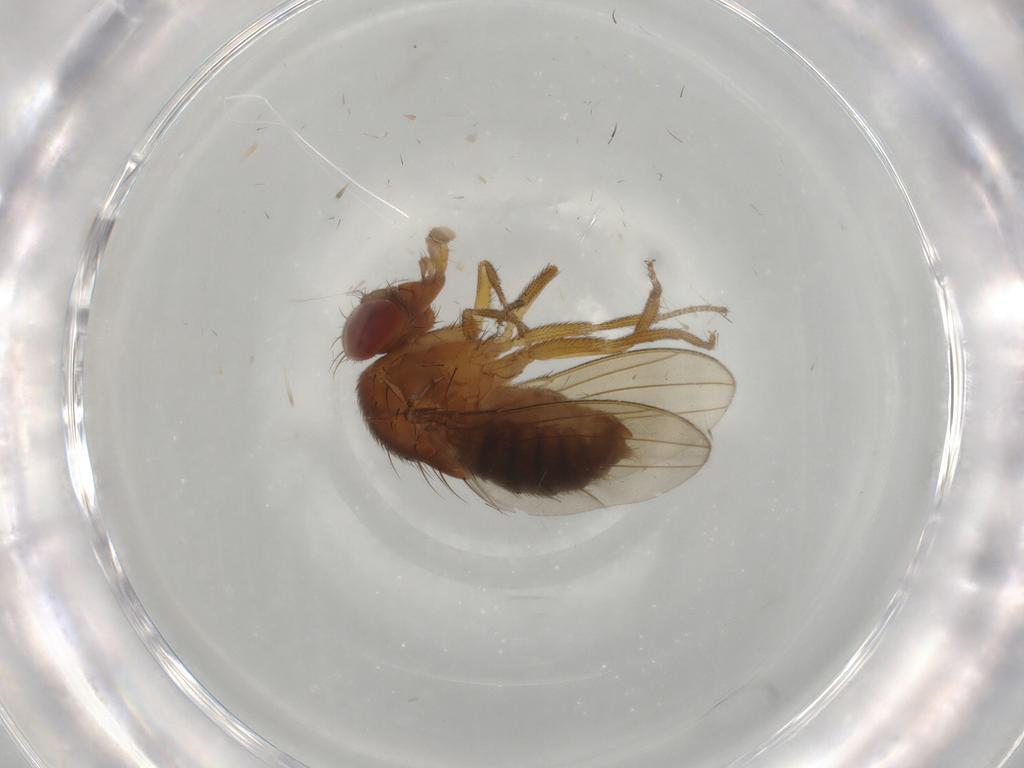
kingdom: Animalia
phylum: Arthropoda
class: Insecta
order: Diptera
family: Drosophilidae
